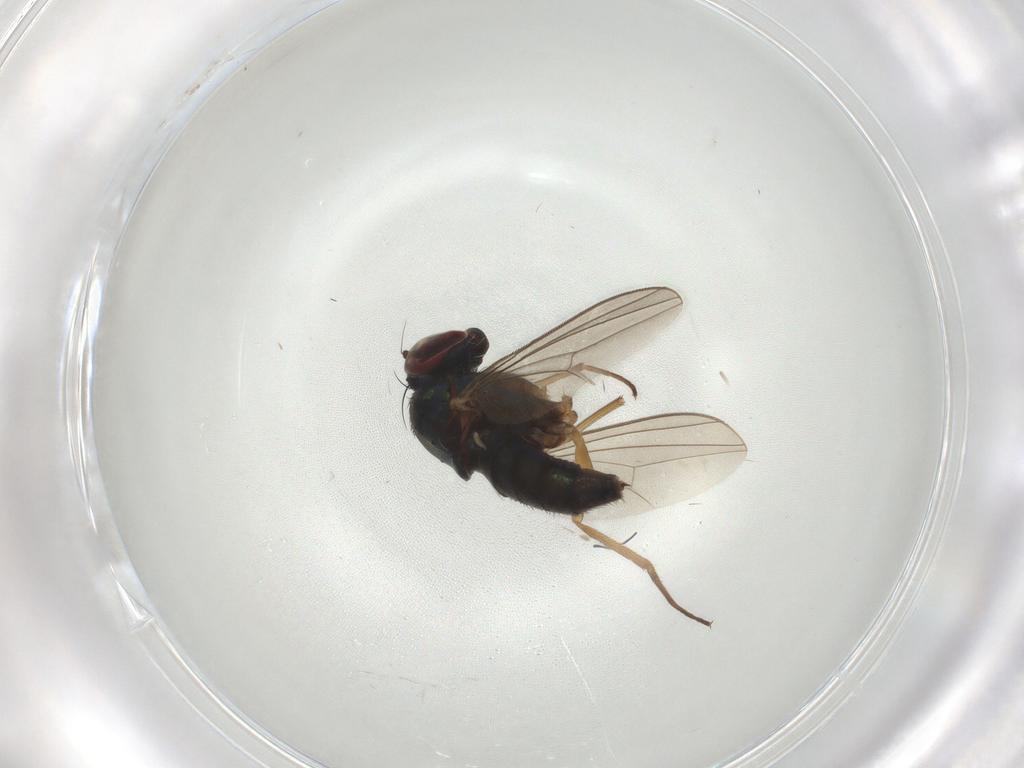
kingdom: Animalia
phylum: Arthropoda
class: Insecta
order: Diptera
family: Dolichopodidae
